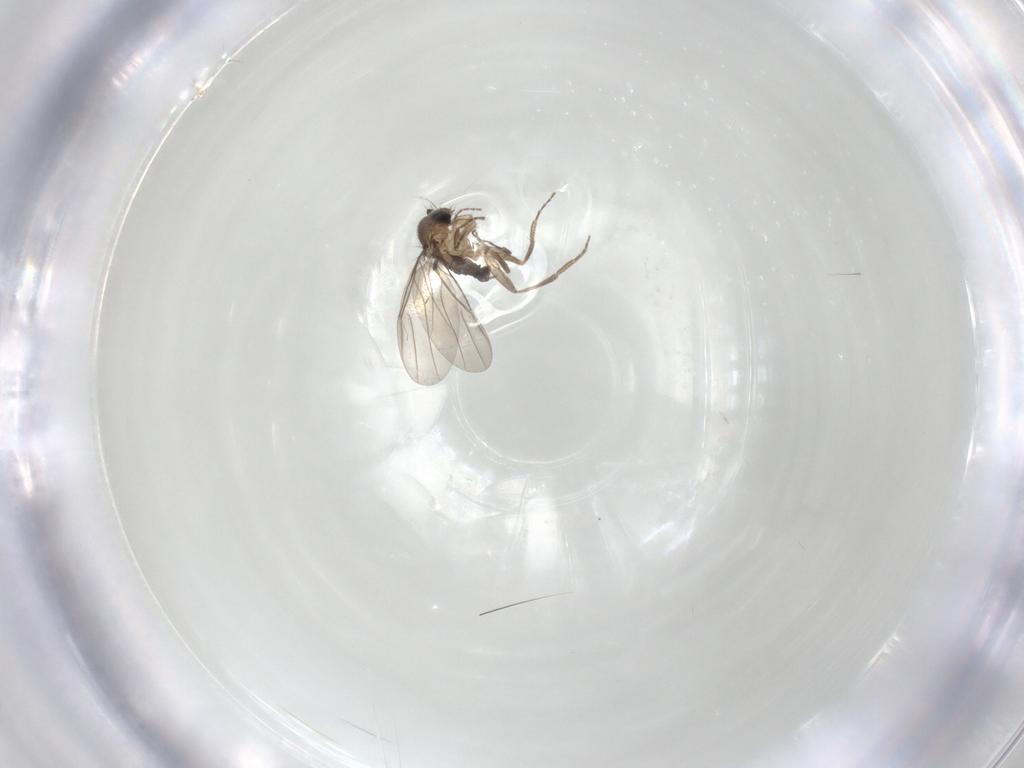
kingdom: Animalia
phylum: Arthropoda
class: Insecta
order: Diptera
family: Phoridae
